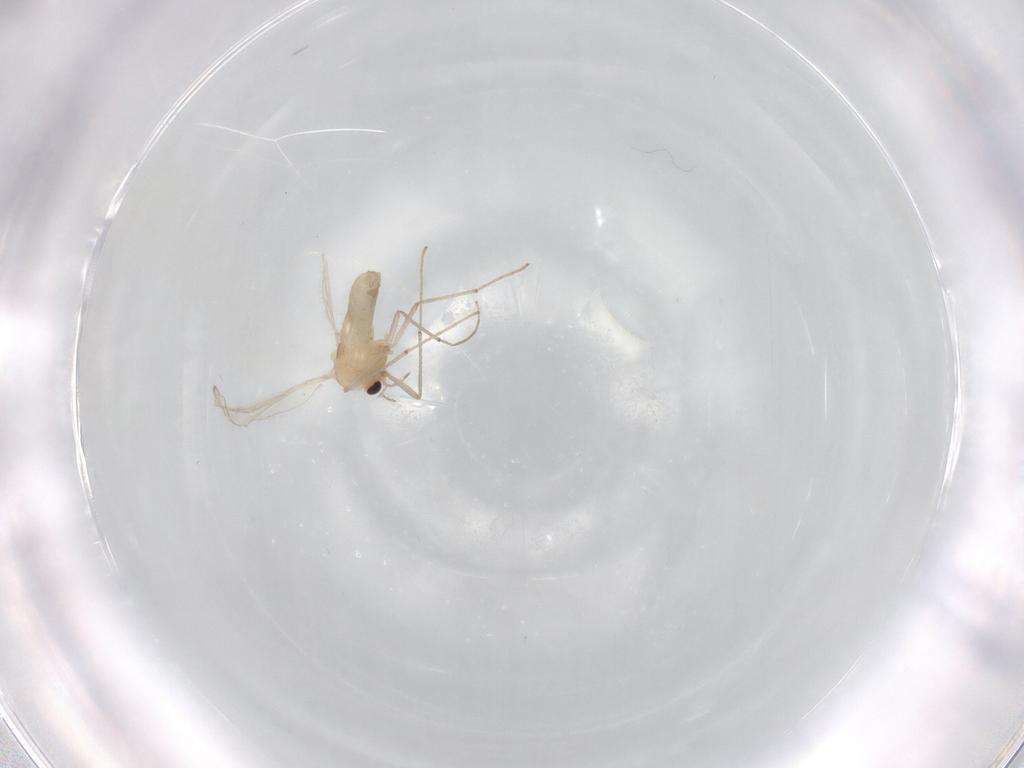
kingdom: Animalia
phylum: Arthropoda
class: Insecta
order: Diptera
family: Chironomidae
